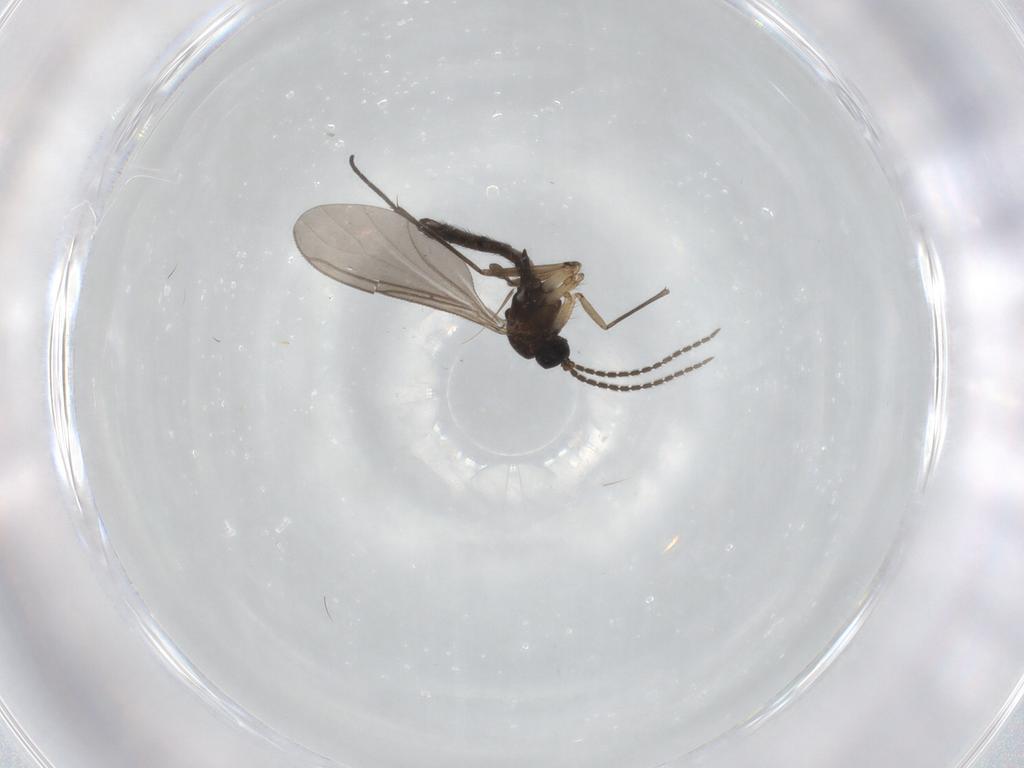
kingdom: Animalia
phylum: Arthropoda
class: Insecta
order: Diptera
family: Sciaridae
